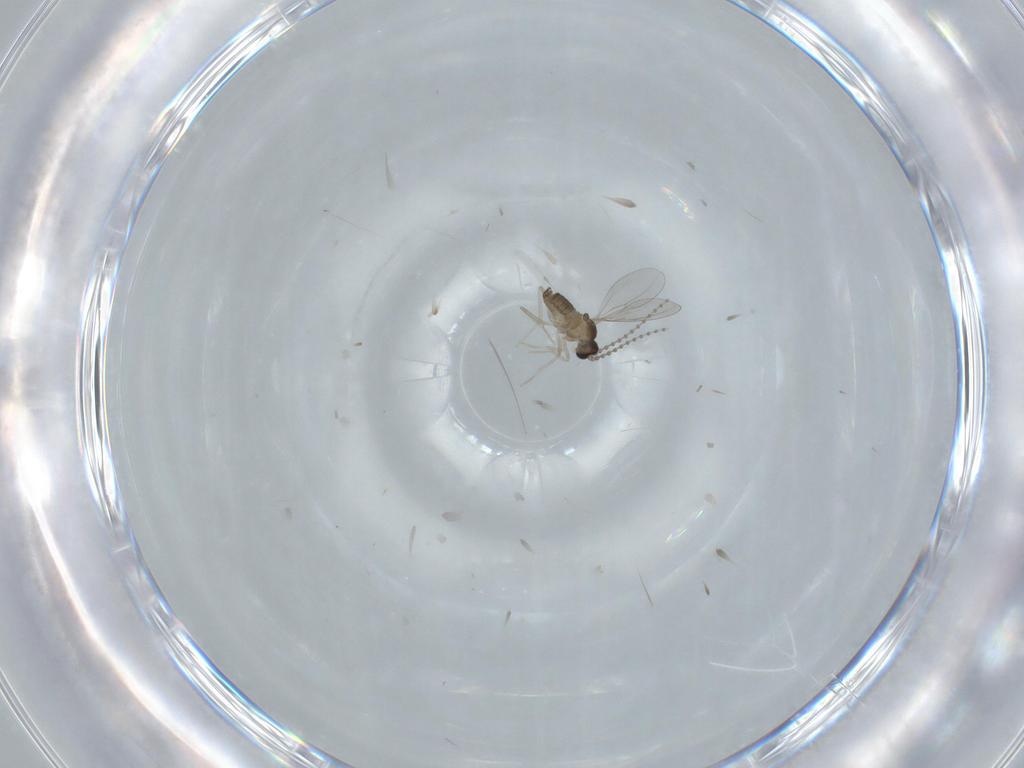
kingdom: Animalia
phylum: Arthropoda
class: Insecta
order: Diptera
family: Cecidomyiidae
